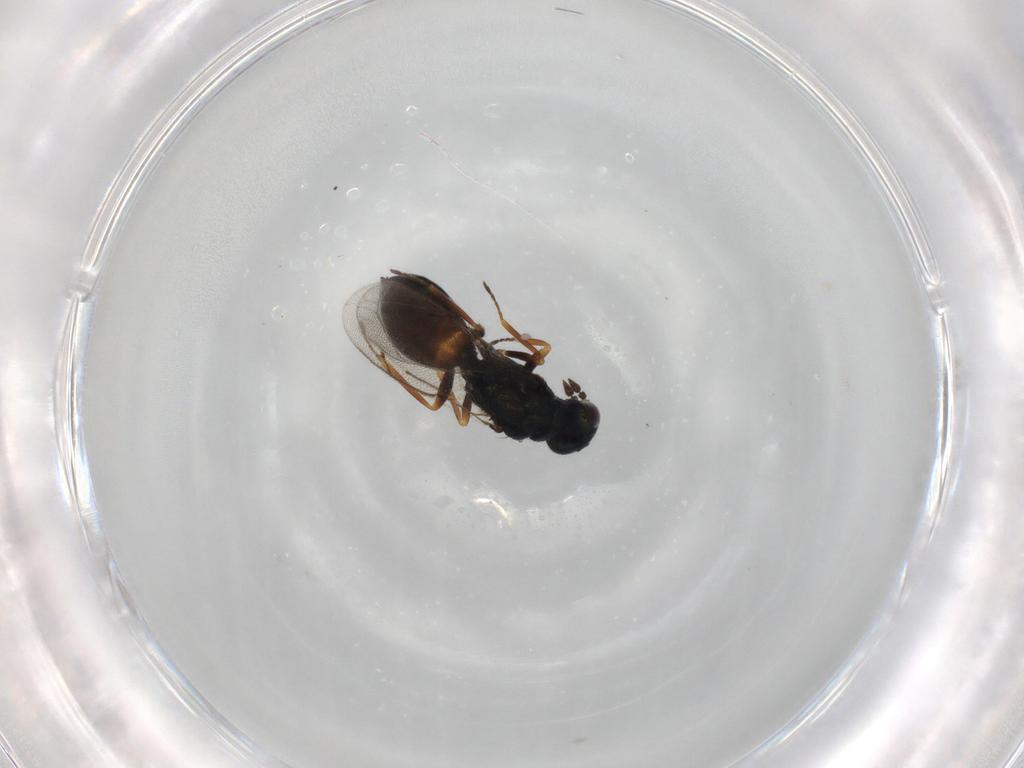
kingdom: Animalia
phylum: Arthropoda
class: Insecta
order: Hymenoptera
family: Eulophidae
